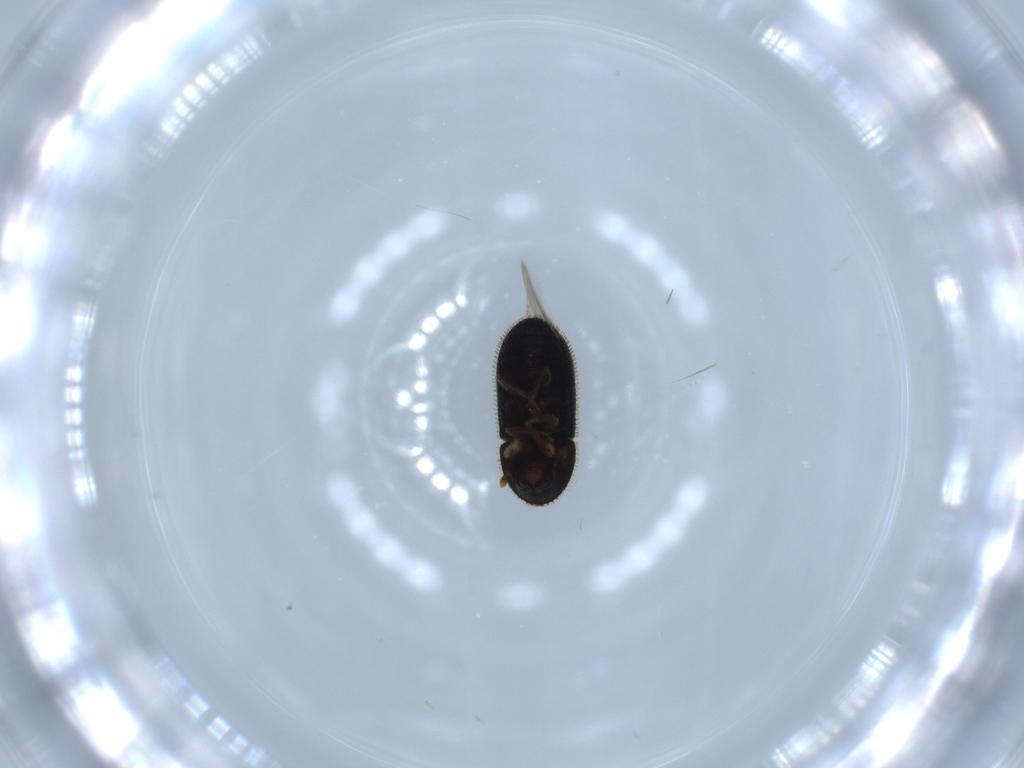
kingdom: Animalia
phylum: Arthropoda
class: Insecta
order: Coleoptera
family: Curculionidae
